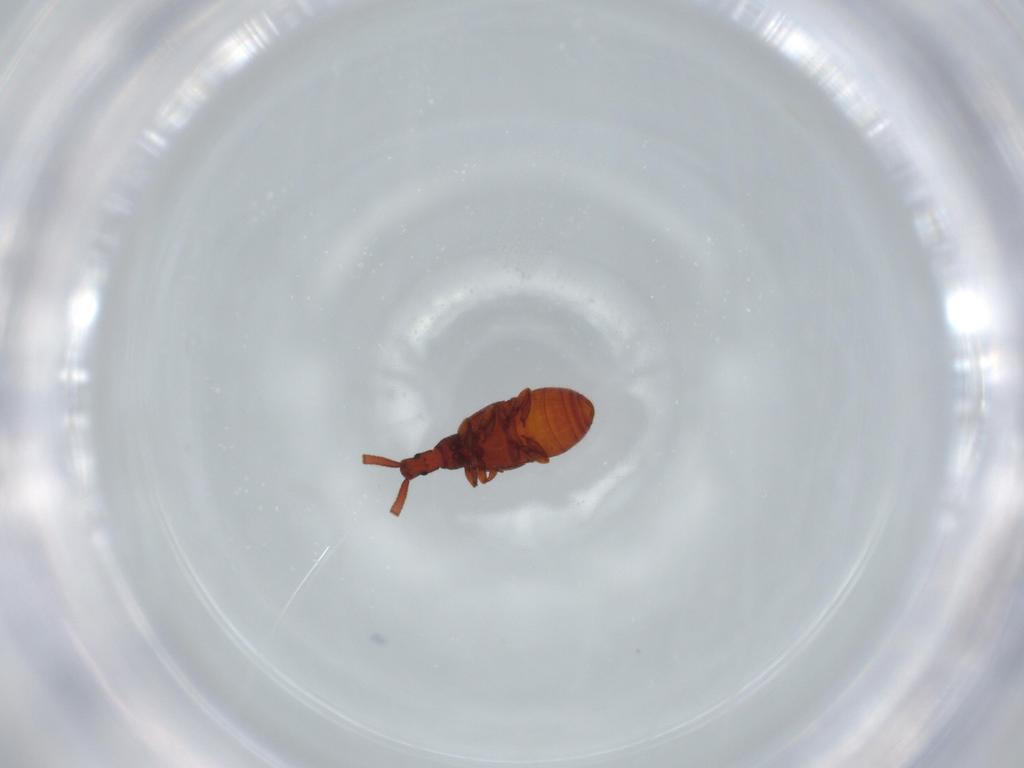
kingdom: Animalia
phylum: Arthropoda
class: Insecta
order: Coleoptera
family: Staphylinidae
